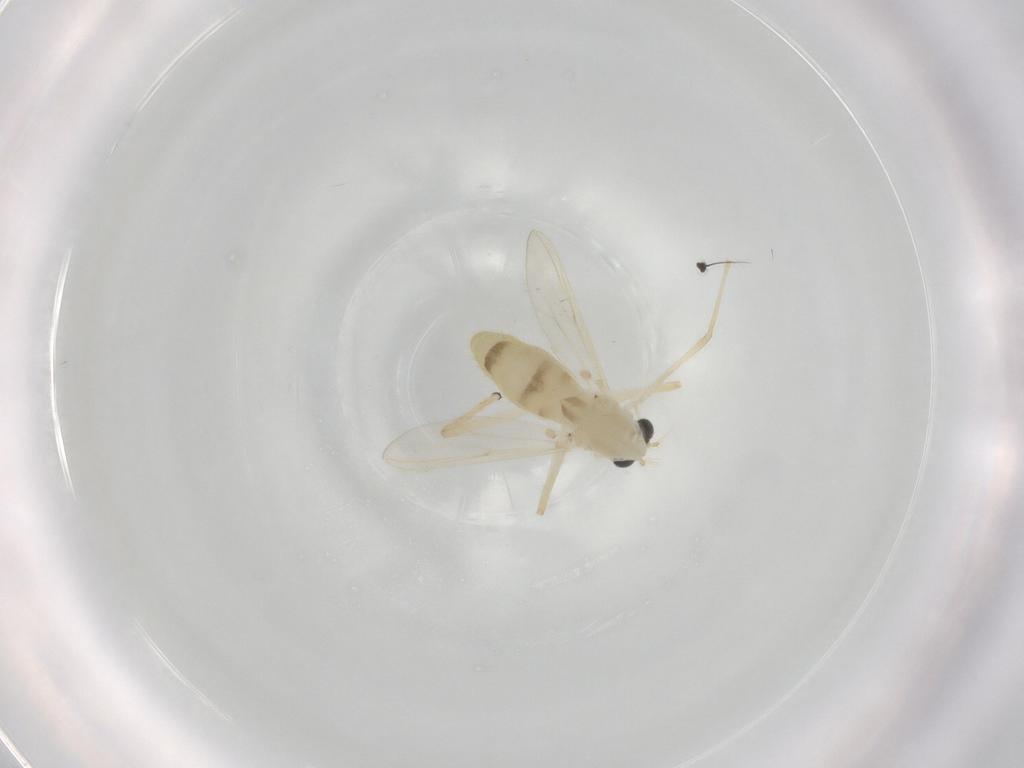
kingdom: Animalia
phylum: Arthropoda
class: Insecta
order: Diptera
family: Chironomidae
